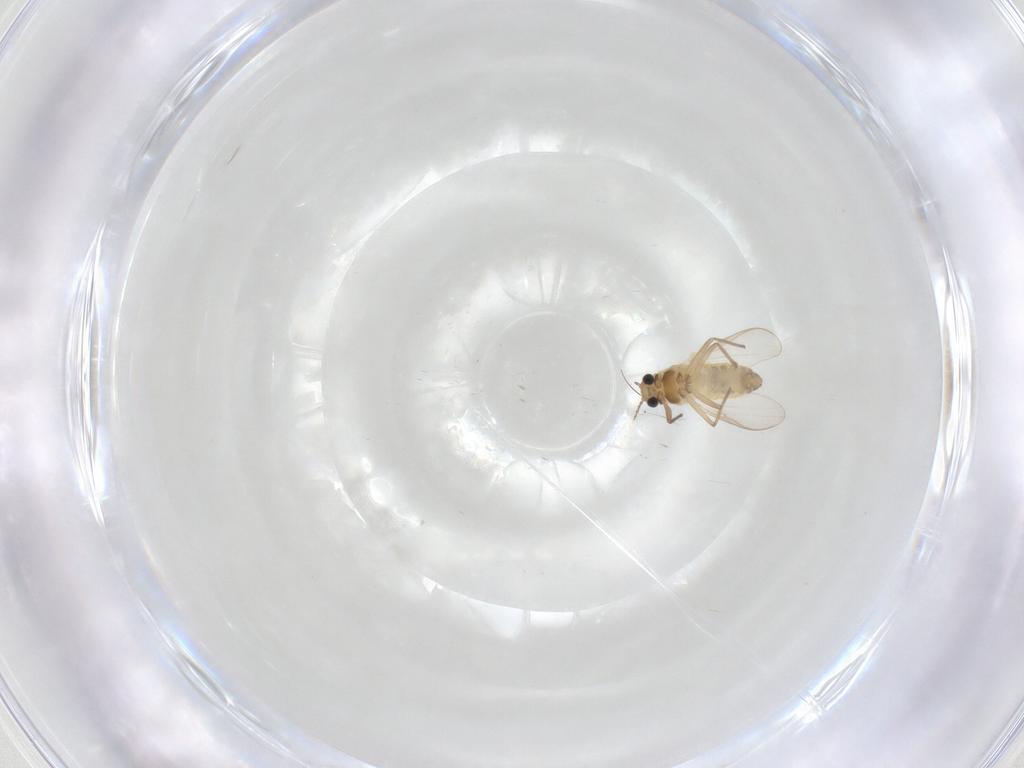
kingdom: Animalia
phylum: Arthropoda
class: Insecta
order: Diptera
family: Chironomidae
